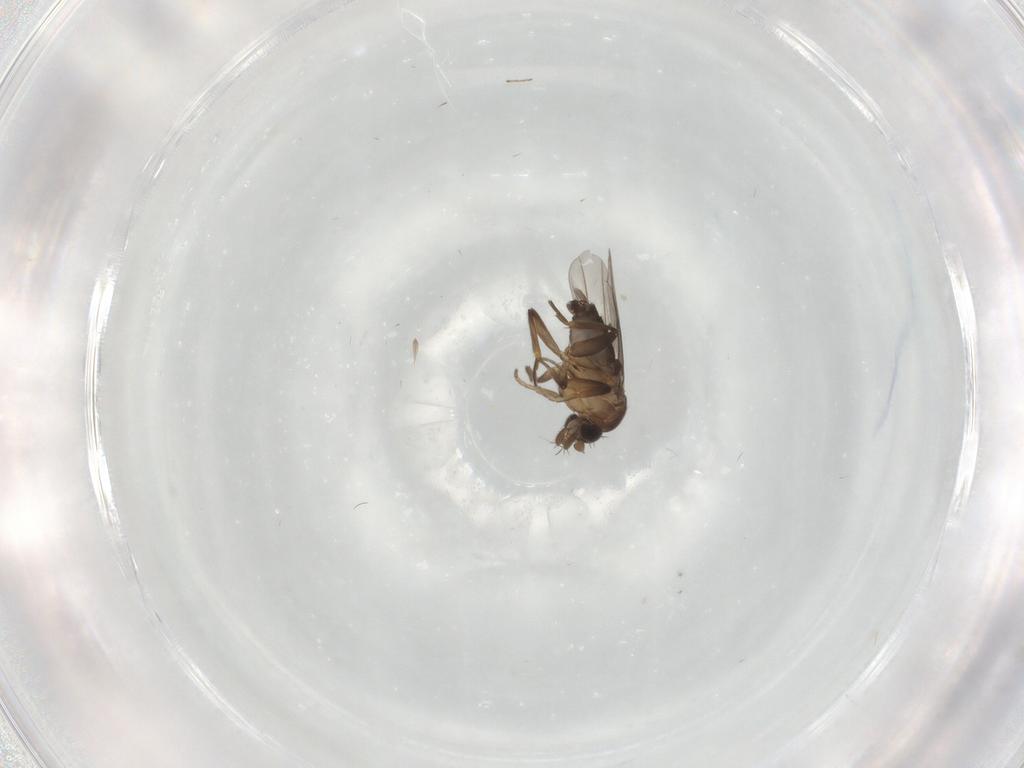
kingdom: Animalia
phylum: Arthropoda
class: Insecta
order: Diptera
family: Phoridae
